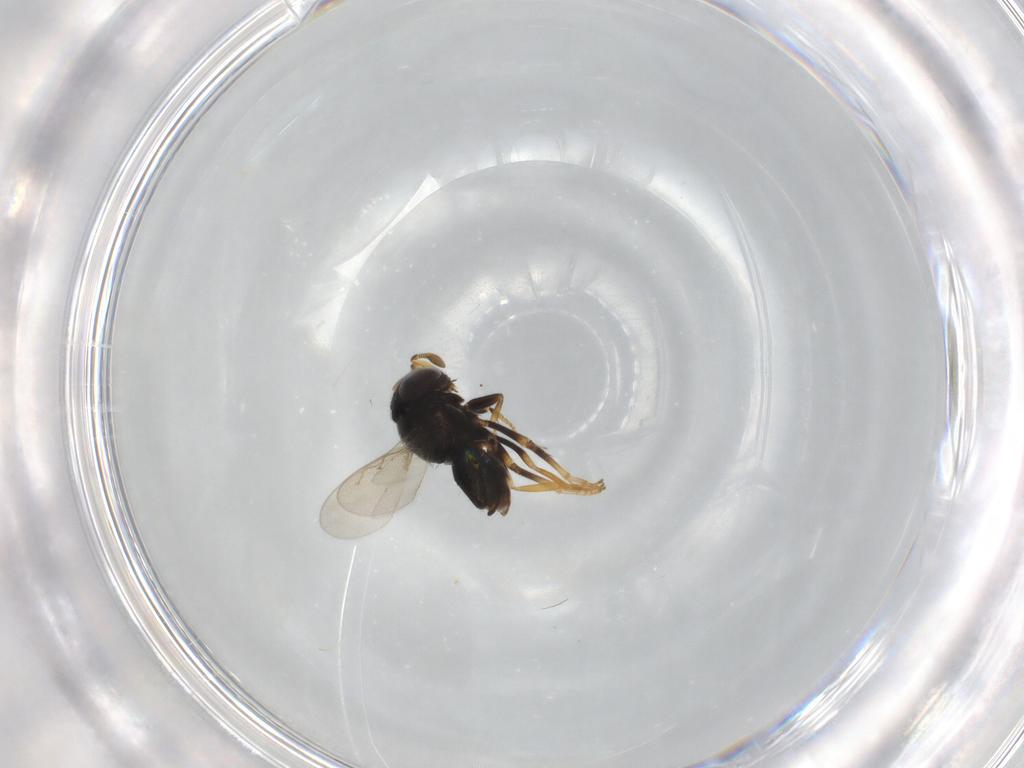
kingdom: Animalia
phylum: Arthropoda
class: Insecta
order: Hymenoptera
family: Encyrtidae
